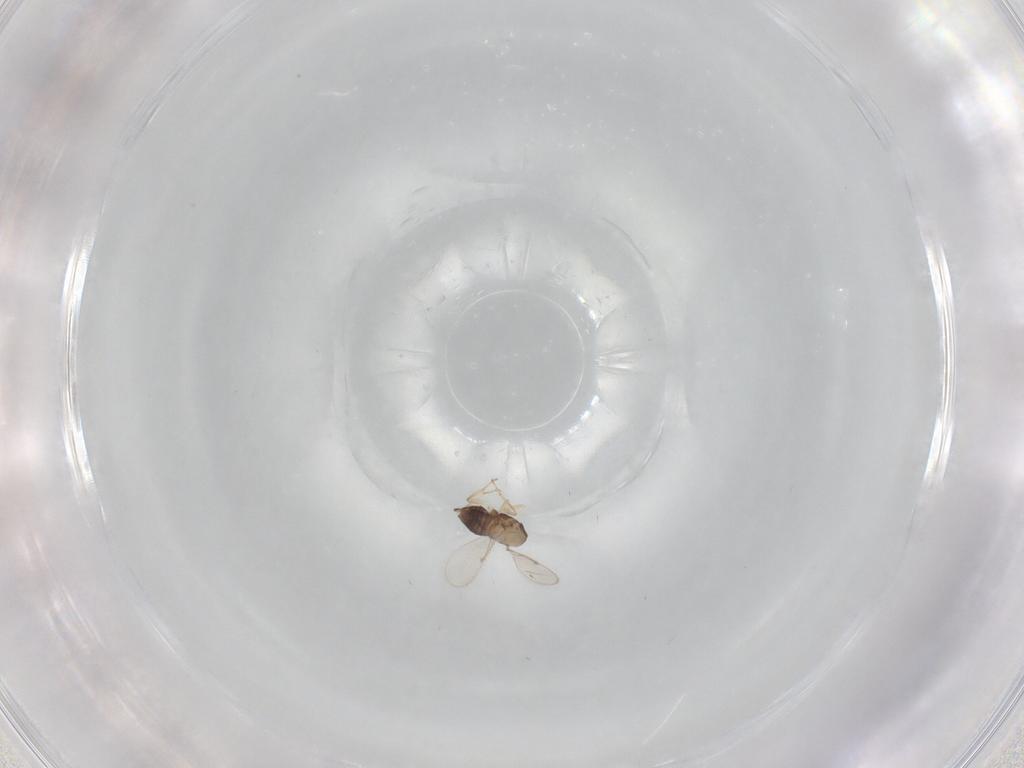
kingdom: Animalia
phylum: Arthropoda
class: Insecta
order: Hymenoptera
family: Aphelinidae
